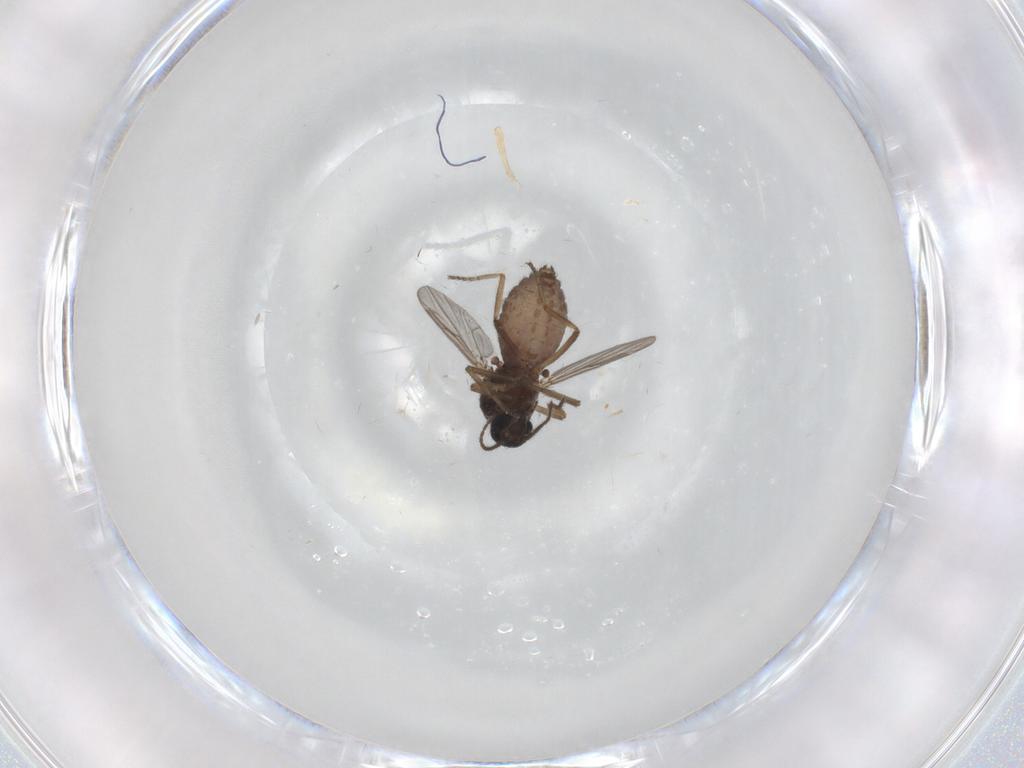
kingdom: Animalia
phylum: Arthropoda
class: Insecta
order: Diptera
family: Ceratopogonidae
